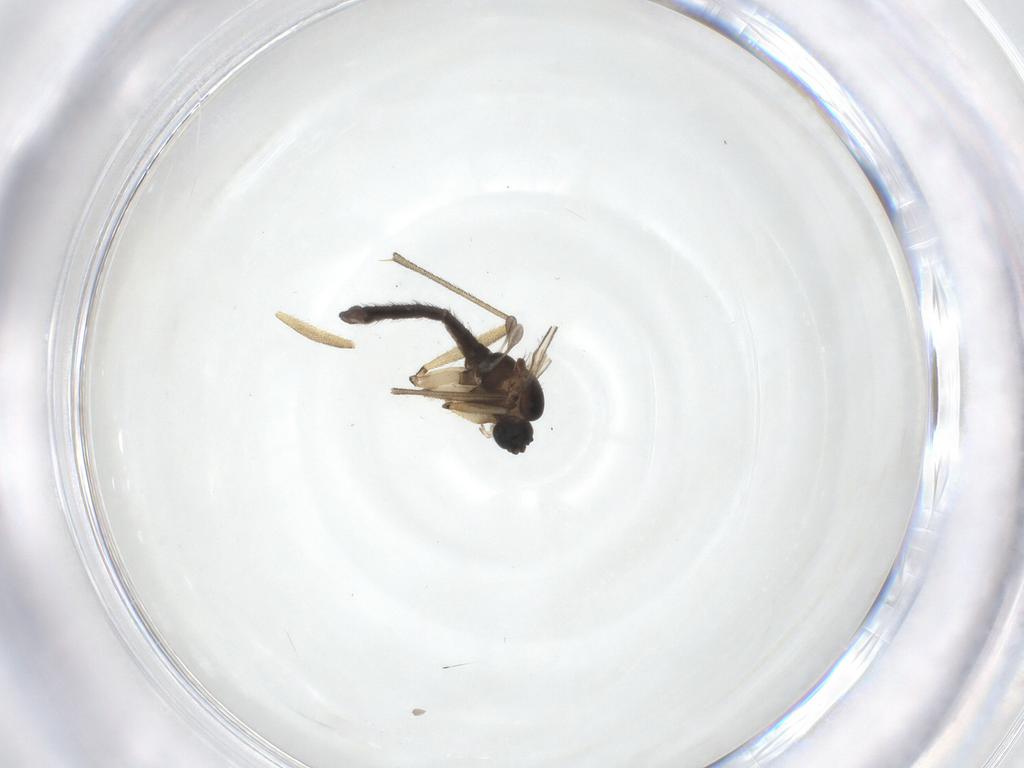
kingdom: Animalia
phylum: Arthropoda
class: Insecta
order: Diptera
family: Sciaridae
